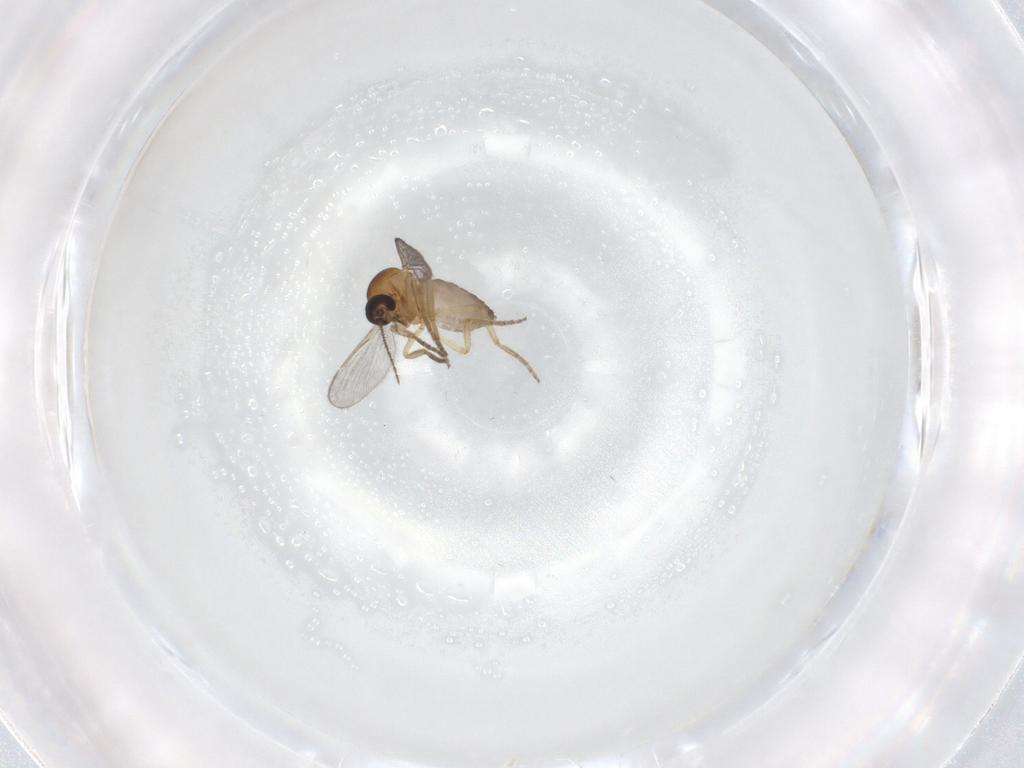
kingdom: Animalia
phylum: Arthropoda
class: Insecta
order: Diptera
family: Ceratopogonidae
